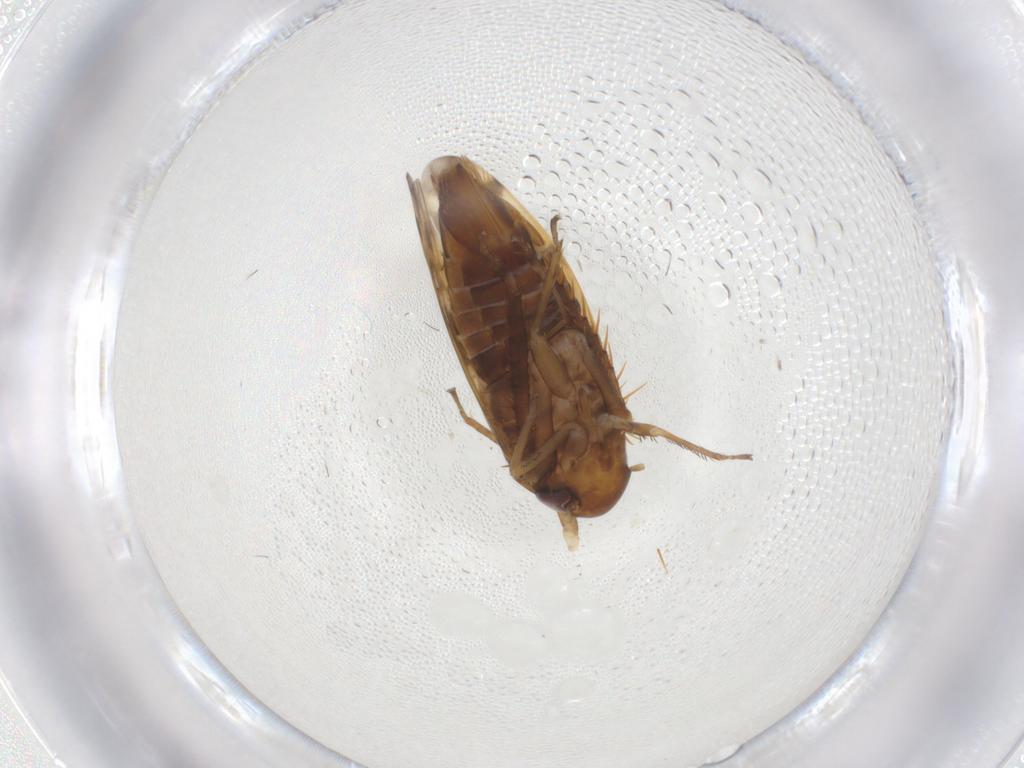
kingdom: Animalia
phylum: Arthropoda
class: Insecta
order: Hemiptera
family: Cicadellidae
